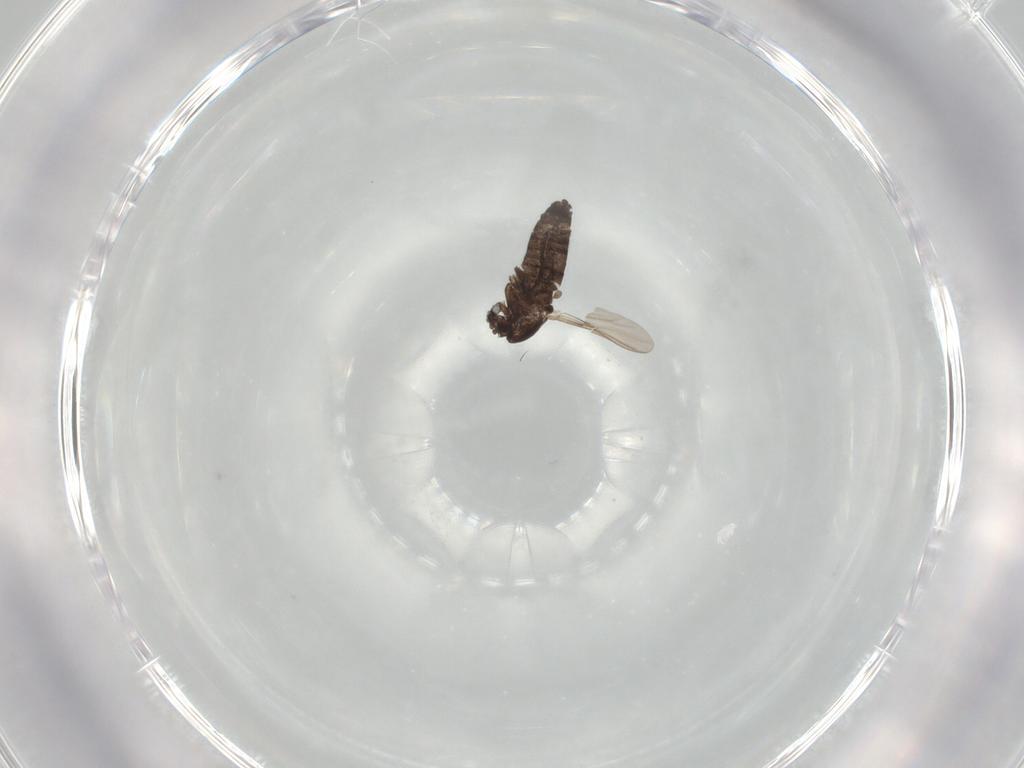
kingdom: Animalia
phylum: Arthropoda
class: Insecta
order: Diptera
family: Chironomidae
